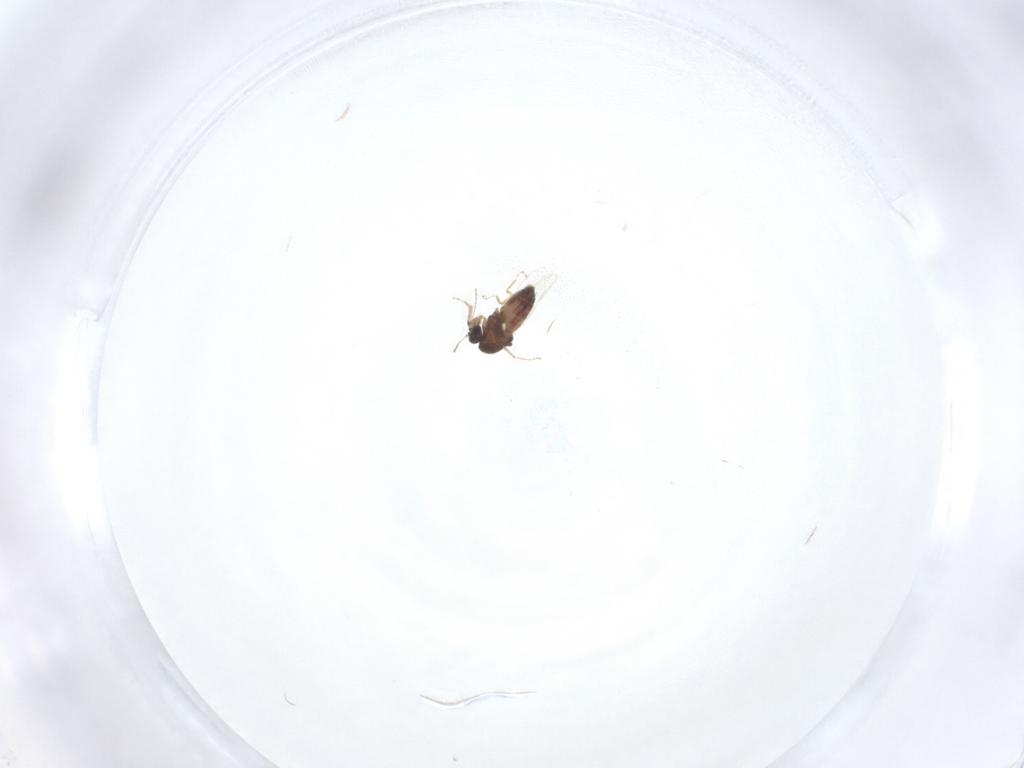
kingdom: Animalia
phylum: Arthropoda
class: Insecta
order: Diptera
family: Ceratopogonidae
